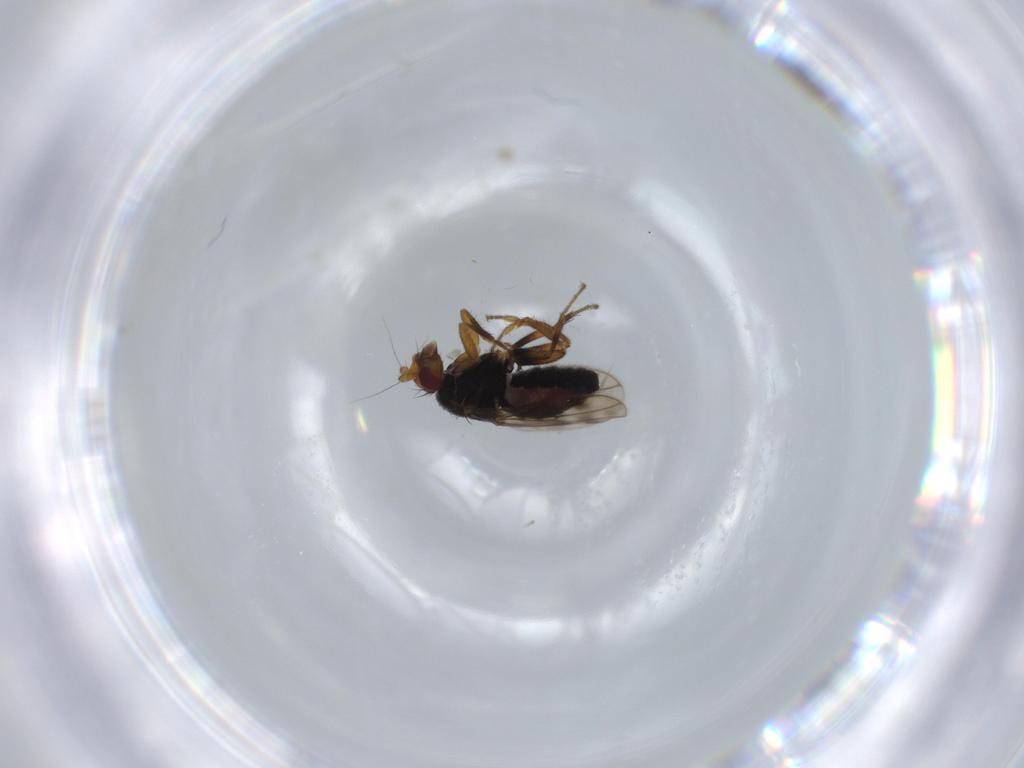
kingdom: Animalia
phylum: Arthropoda
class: Insecta
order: Diptera
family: Sphaeroceridae
